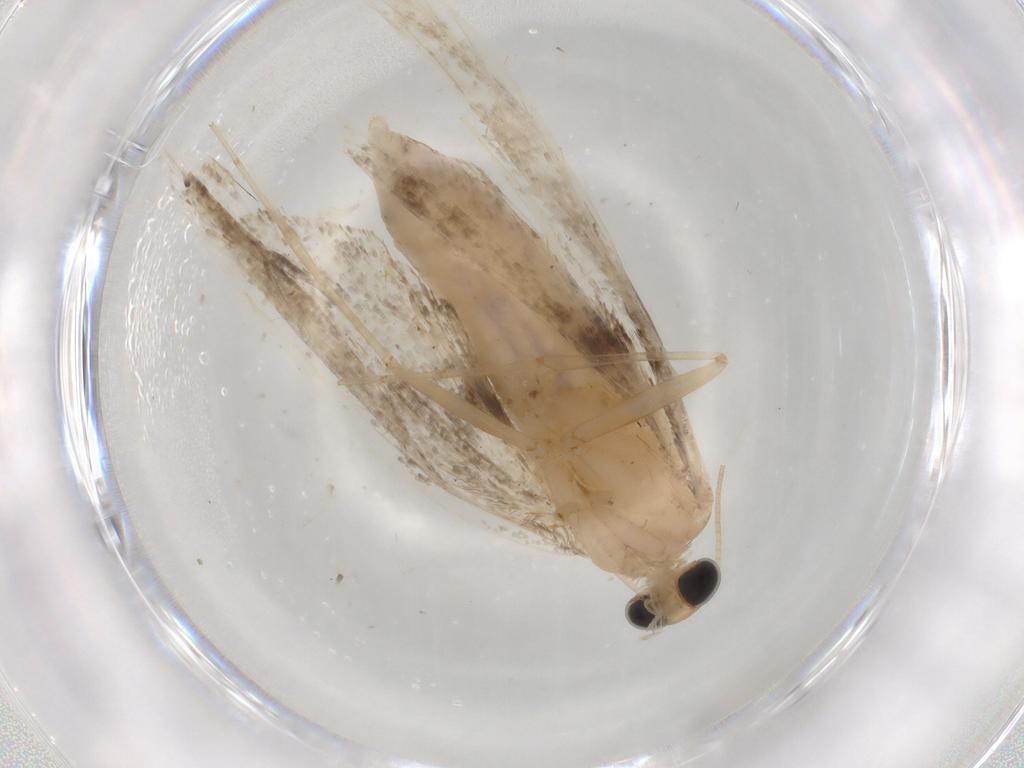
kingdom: Animalia
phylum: Arthropoda
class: Insecta
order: Lepidoptera
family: Noctuidae
